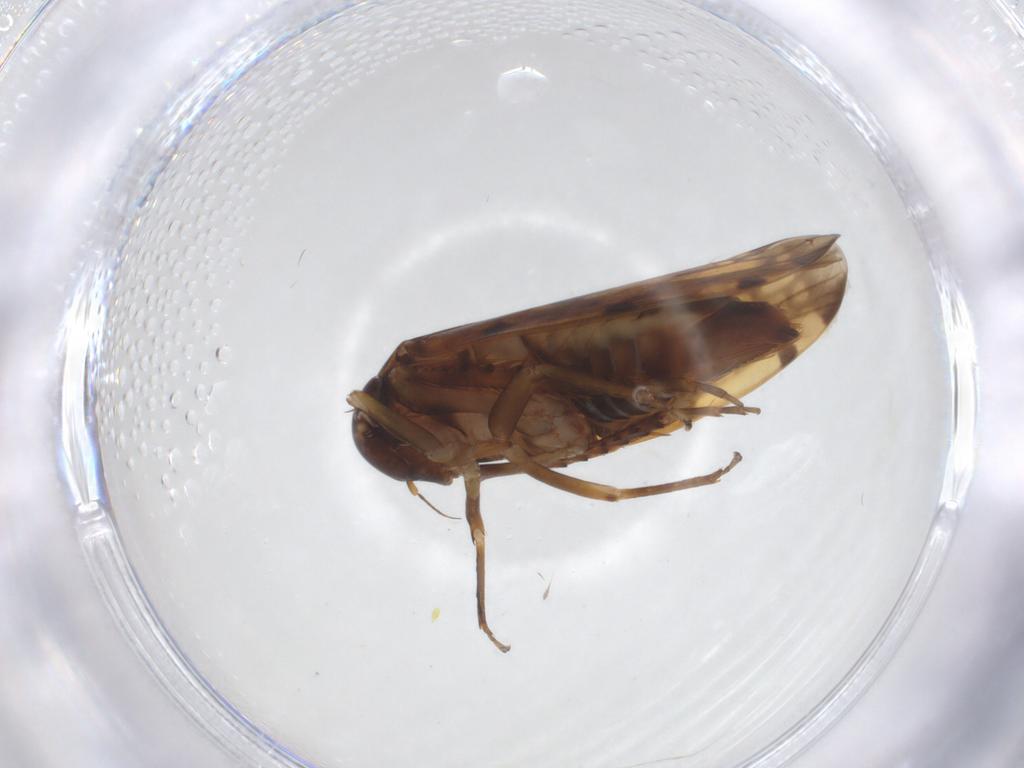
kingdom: Animalia
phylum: Arthropoda
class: Insecta
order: Hemiptera
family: Cicadellidae
